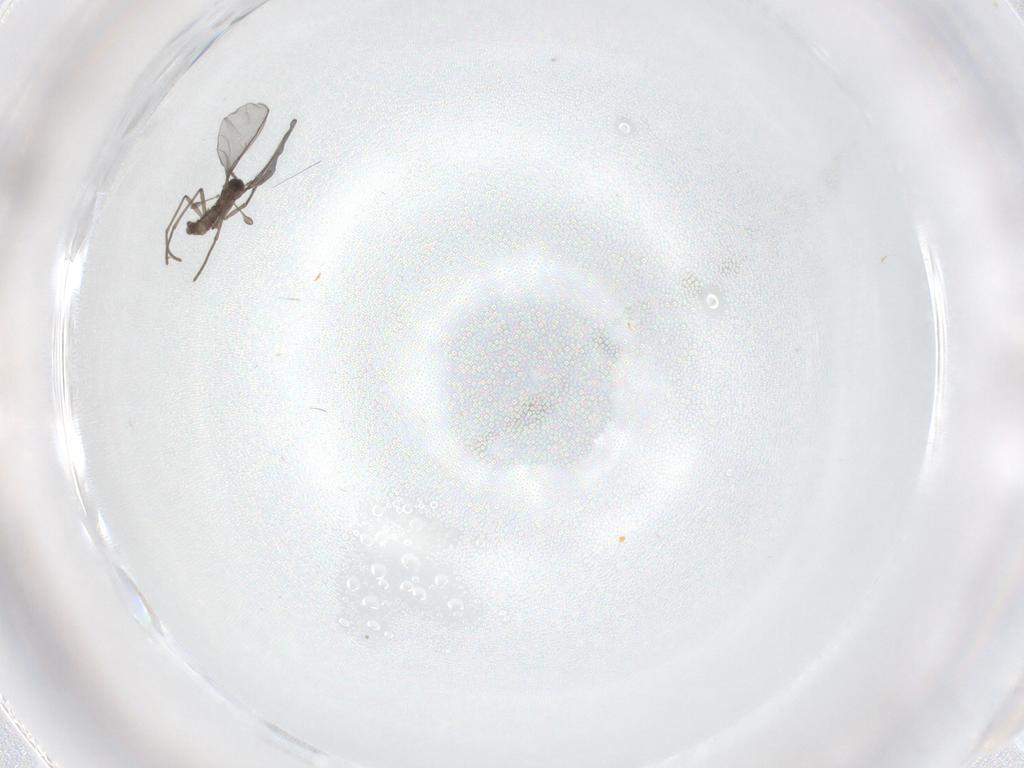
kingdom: Animalia
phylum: Arthropoda
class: Insecta
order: Diptera
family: Sciaridae
